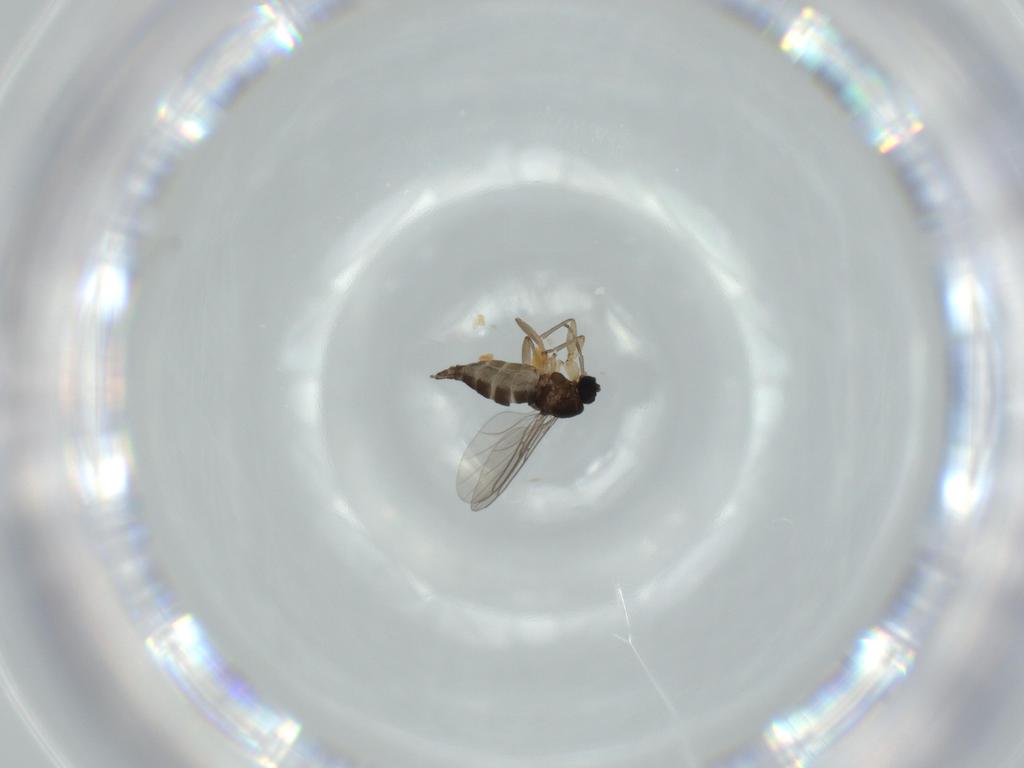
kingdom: Animalia
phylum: Arthropoda
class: Insecta
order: Diptera
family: Sciaridae
